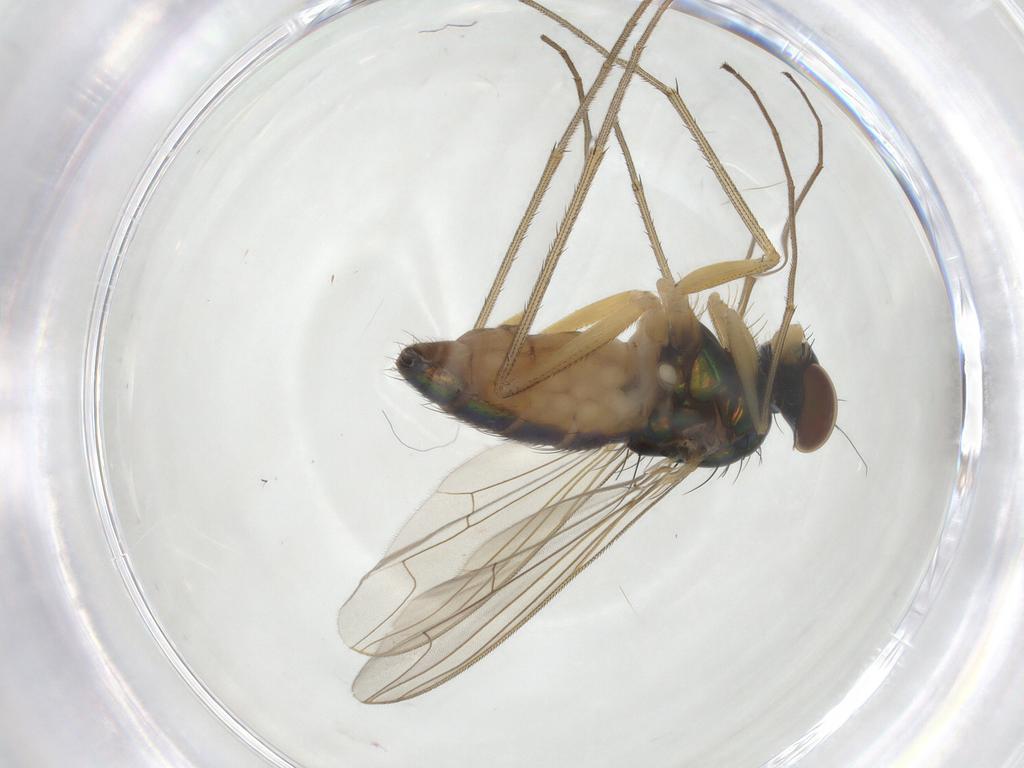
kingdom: Animalia
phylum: Arthropoda
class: Insecta
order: Diptera
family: Dolichopodidae
